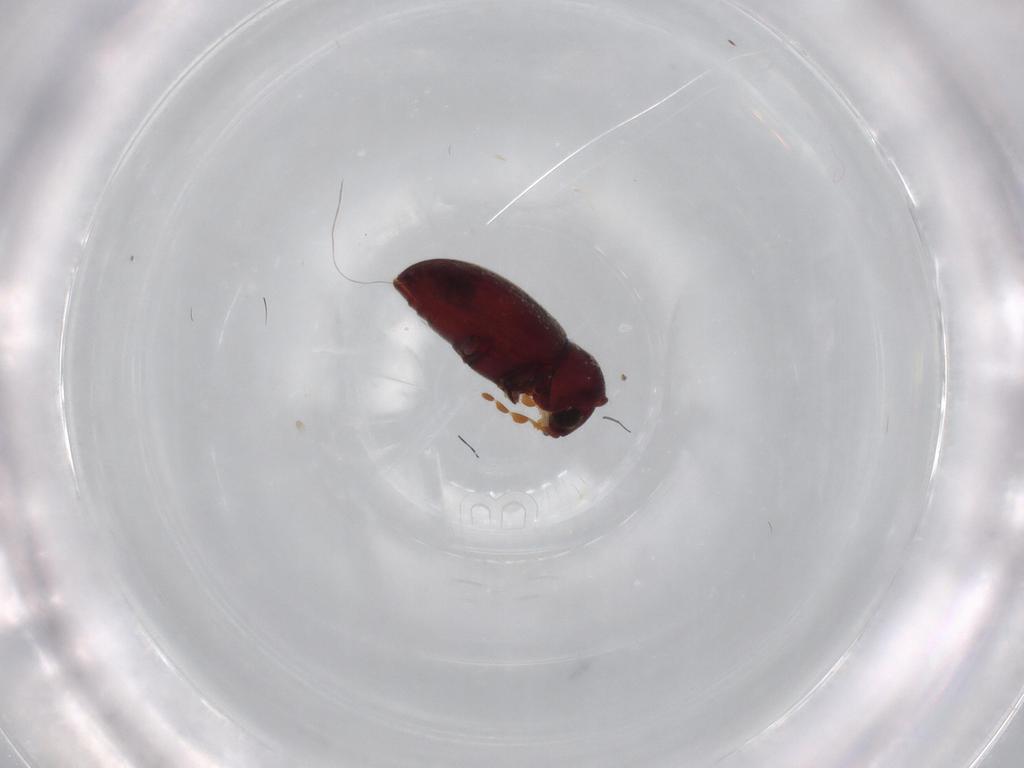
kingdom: Animalia
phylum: Arthropoda
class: Insecta
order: Coleoptera
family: Ptinidae
